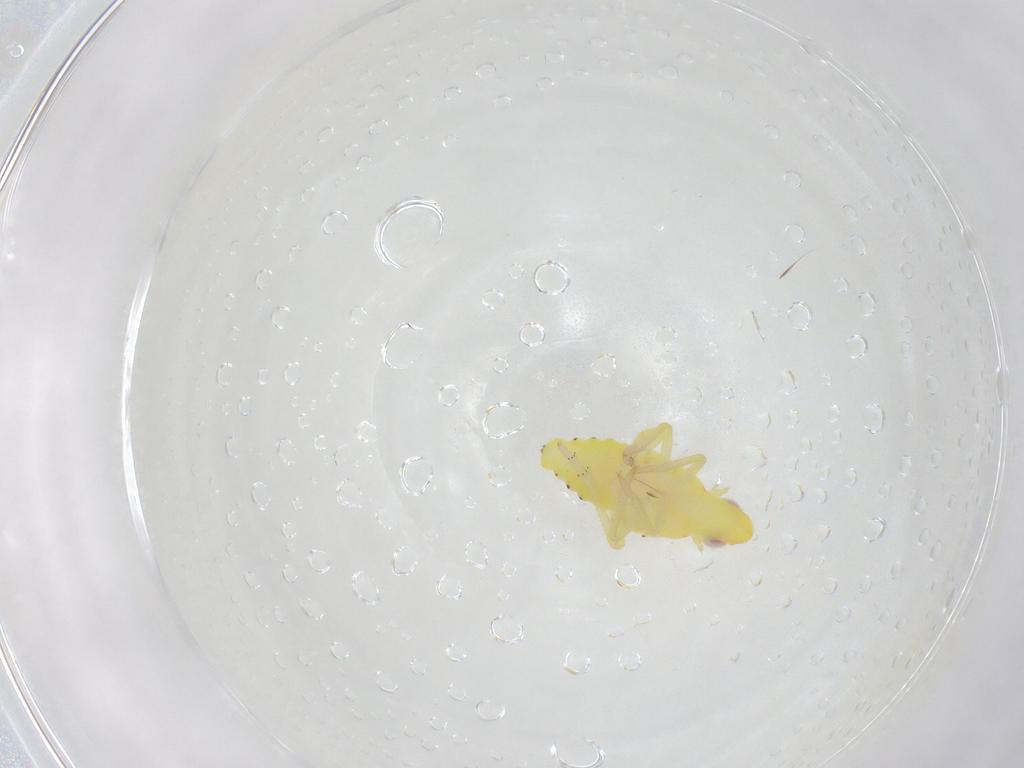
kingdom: Animalia
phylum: Arthropoda
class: Insecta
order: Hemiptera
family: Tropiduchidae
